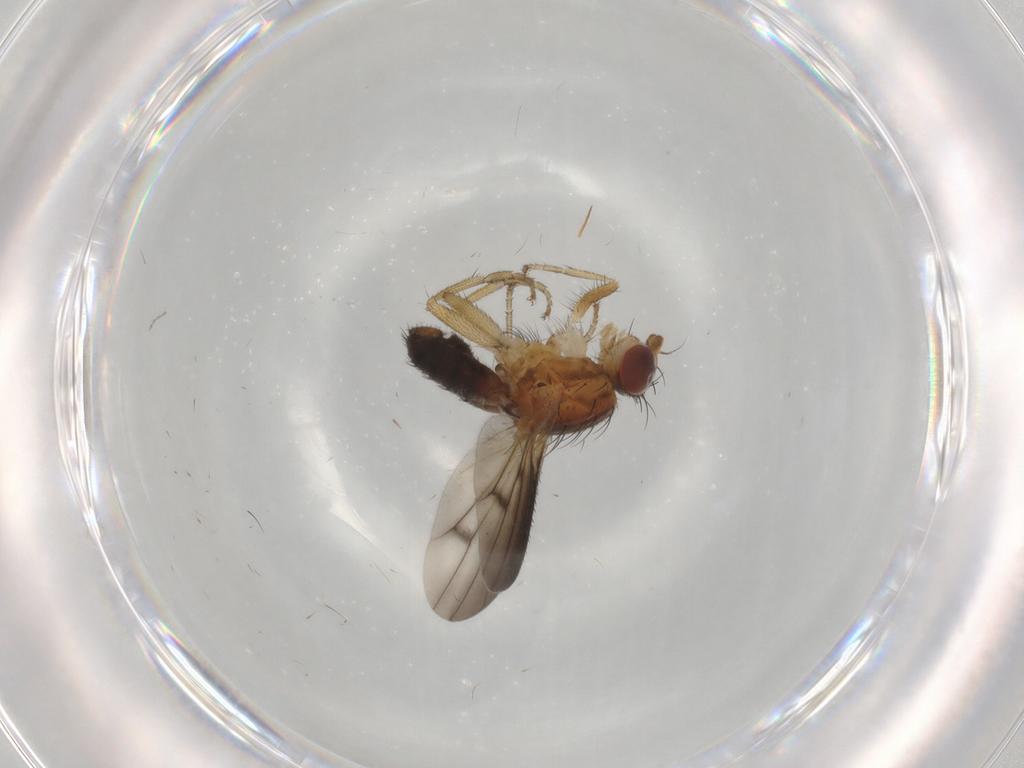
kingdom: Animalia
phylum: Arthropoda
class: Insecta
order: Diptera
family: Heleomyzidae
